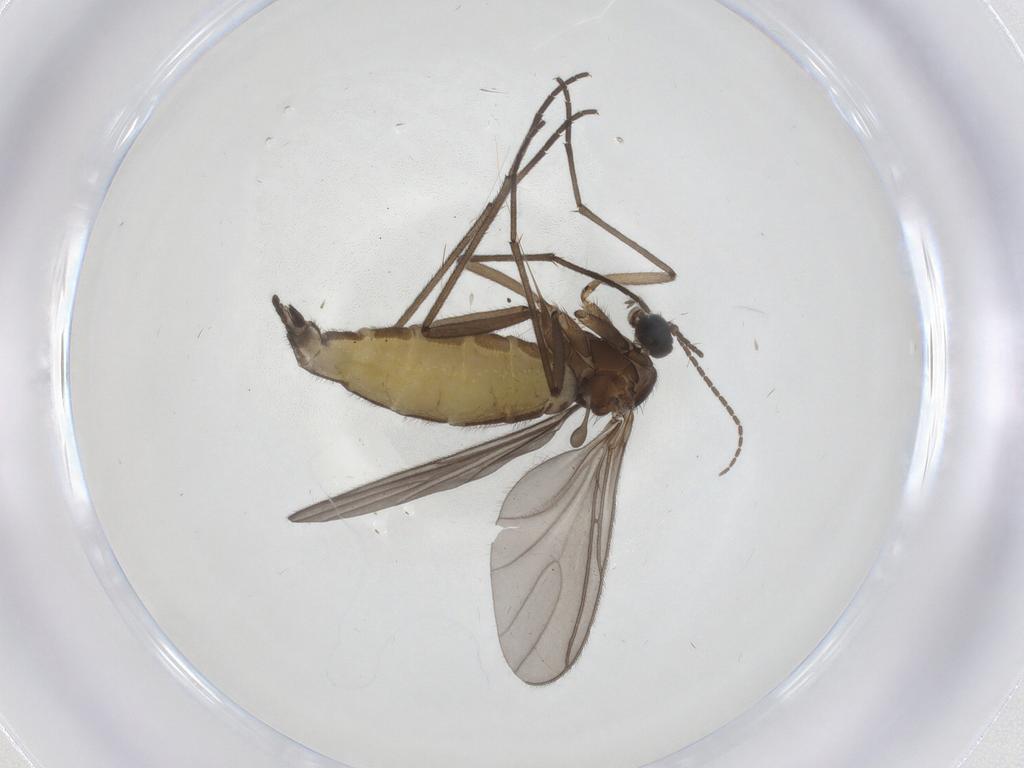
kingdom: Animalia
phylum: Arthropoda
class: Insecta
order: Diptera
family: Sciaridae
